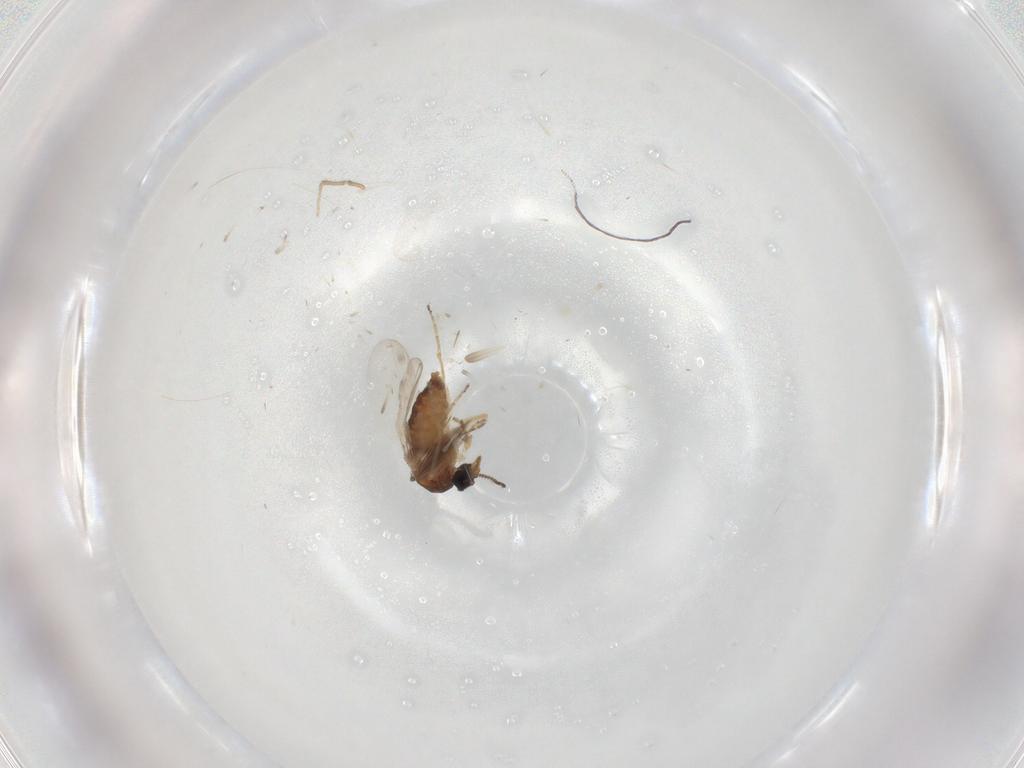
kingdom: Animalia
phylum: Arthropoda
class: Insecta
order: Diptera
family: Ceratopogonidae
